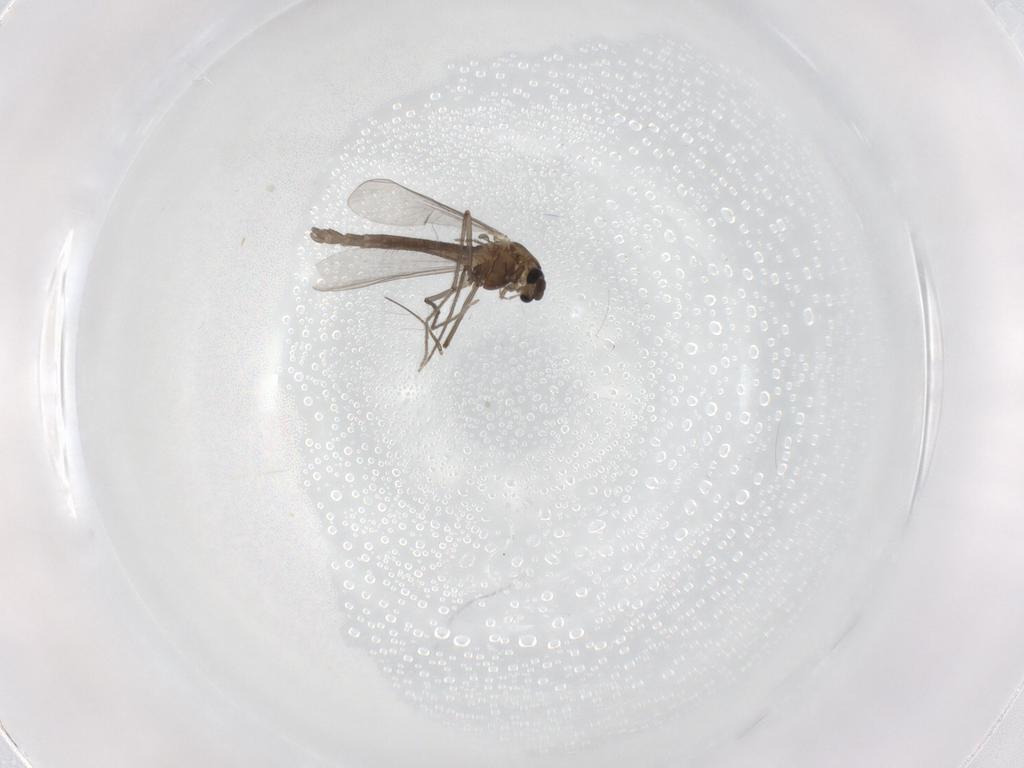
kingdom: Animalia
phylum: Arthropoda
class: Insecta
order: Diptera
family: Chironomidae
